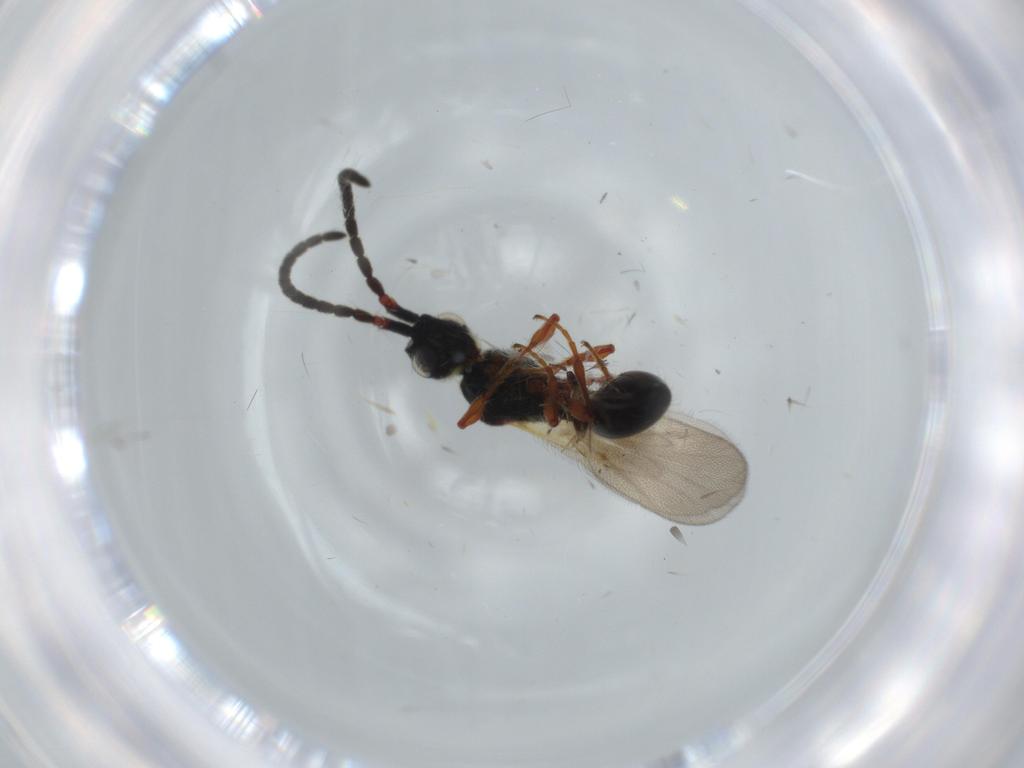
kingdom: Animalia
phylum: Arthropoda
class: Insecta
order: Hymenoptera
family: Diapriidae
